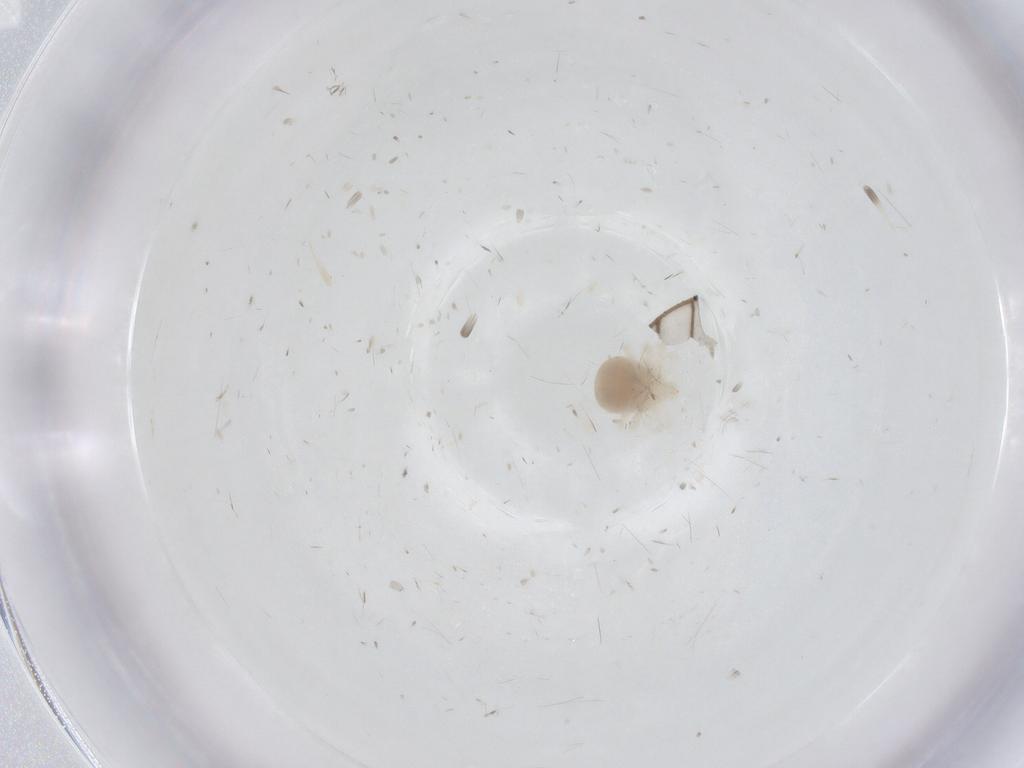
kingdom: Animalia
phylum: Arthropoda
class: Arachnida
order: Trombidiformes
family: Anystidae
